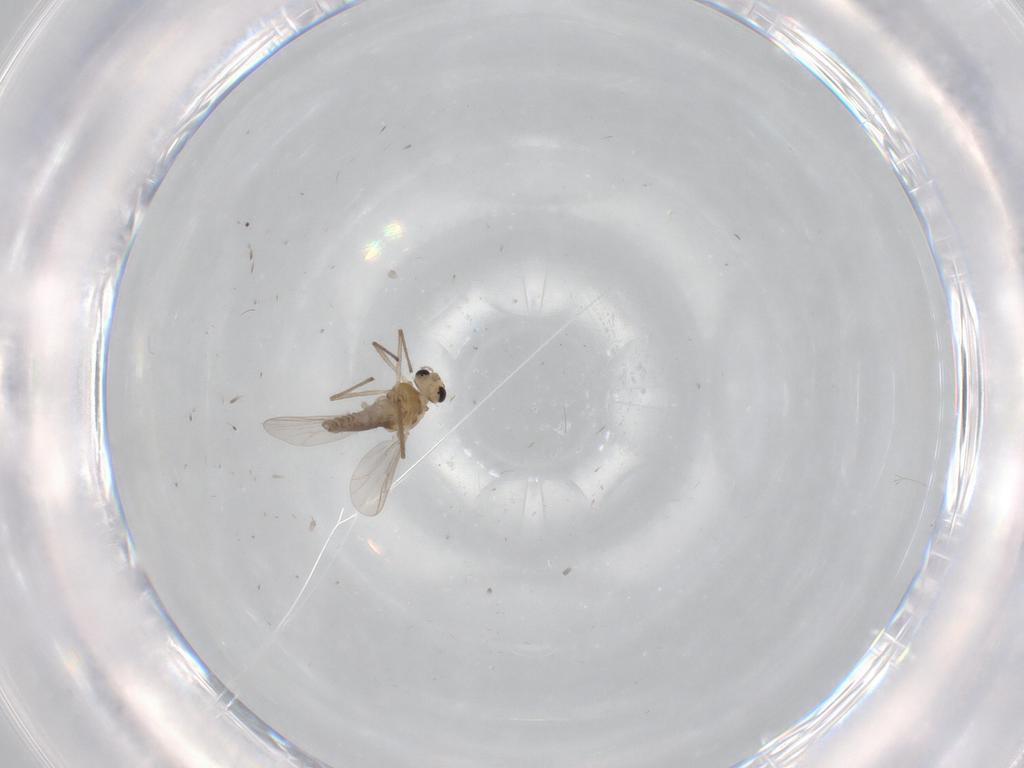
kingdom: Animalia
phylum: Arthropoda
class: Insecta
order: Diptera
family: Chironomidae
